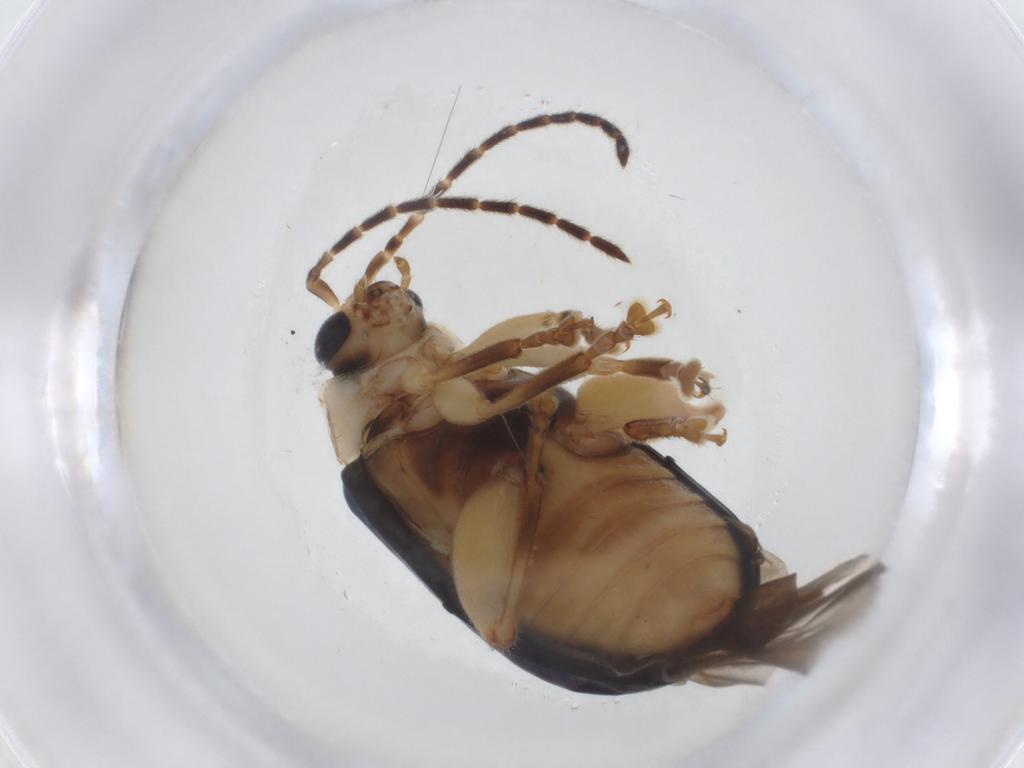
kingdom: Animalia
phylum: Arthropoda
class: Insecta
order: Coleoptera
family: Chrysomelidae
